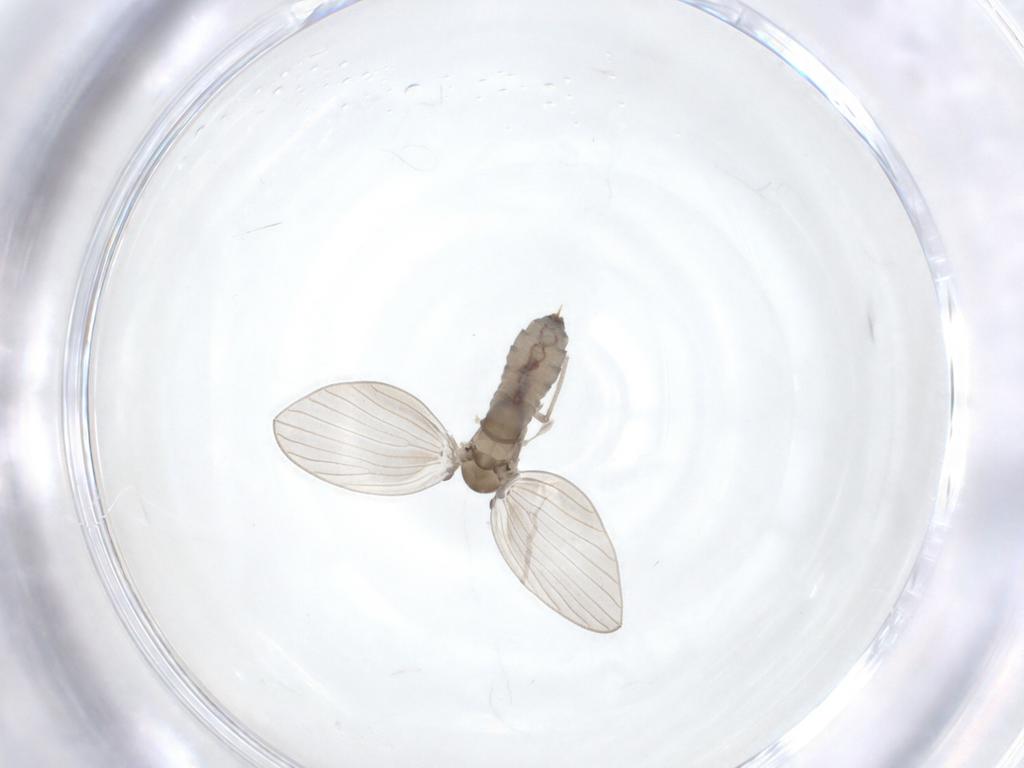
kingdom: Animalia
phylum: Arthropoda
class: Insecta
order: Diptera
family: Psychodidae
